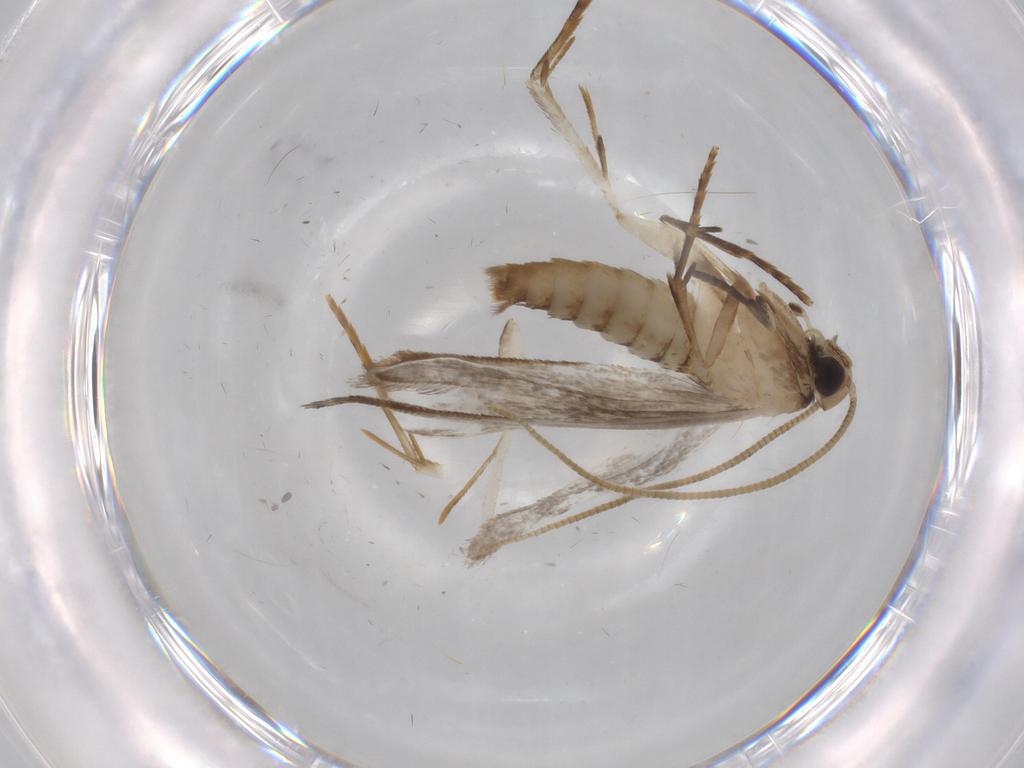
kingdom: Animalia
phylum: Arthropoda
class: Insecta
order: Lepidoptera
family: Tineidae
